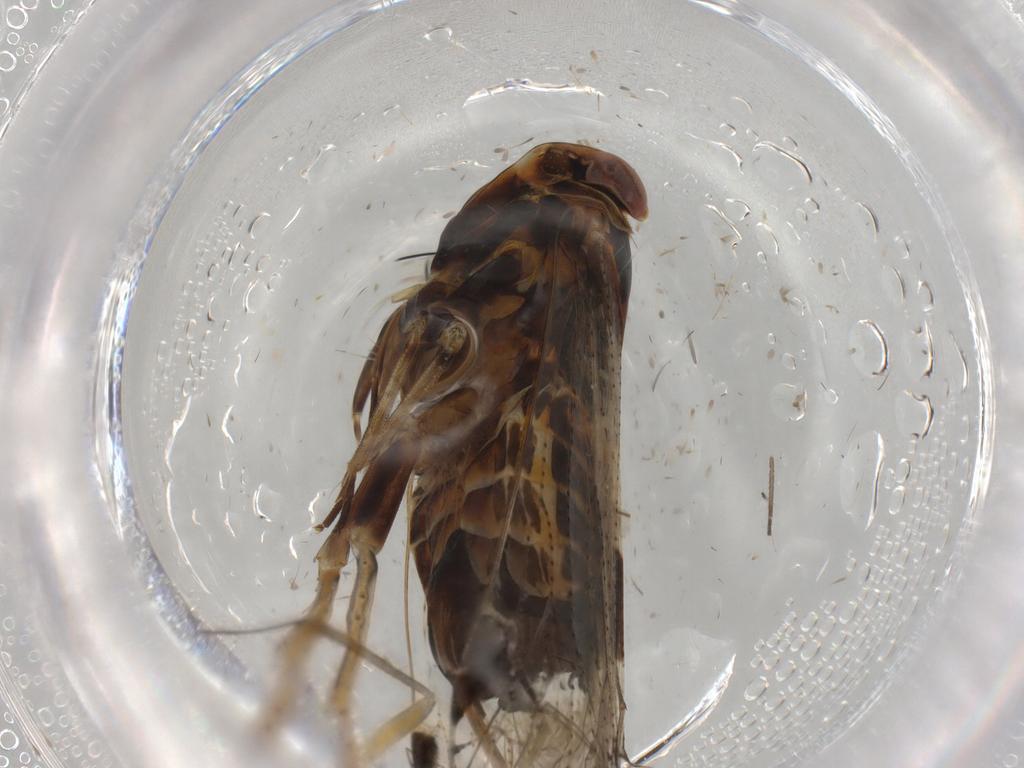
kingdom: Animalia
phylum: Arthropoda
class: Insecta
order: Hemiptera
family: Cixiidae
